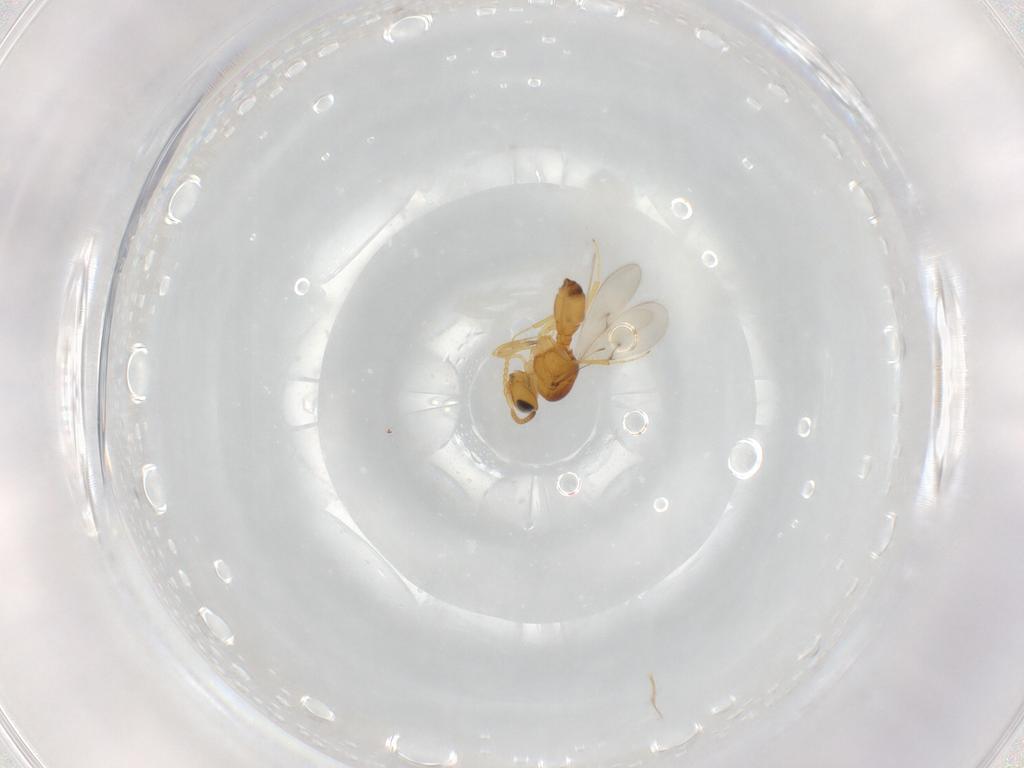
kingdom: Animalia
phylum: Arthropoda
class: Insecta
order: Hymenoptera
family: Scelionidae
